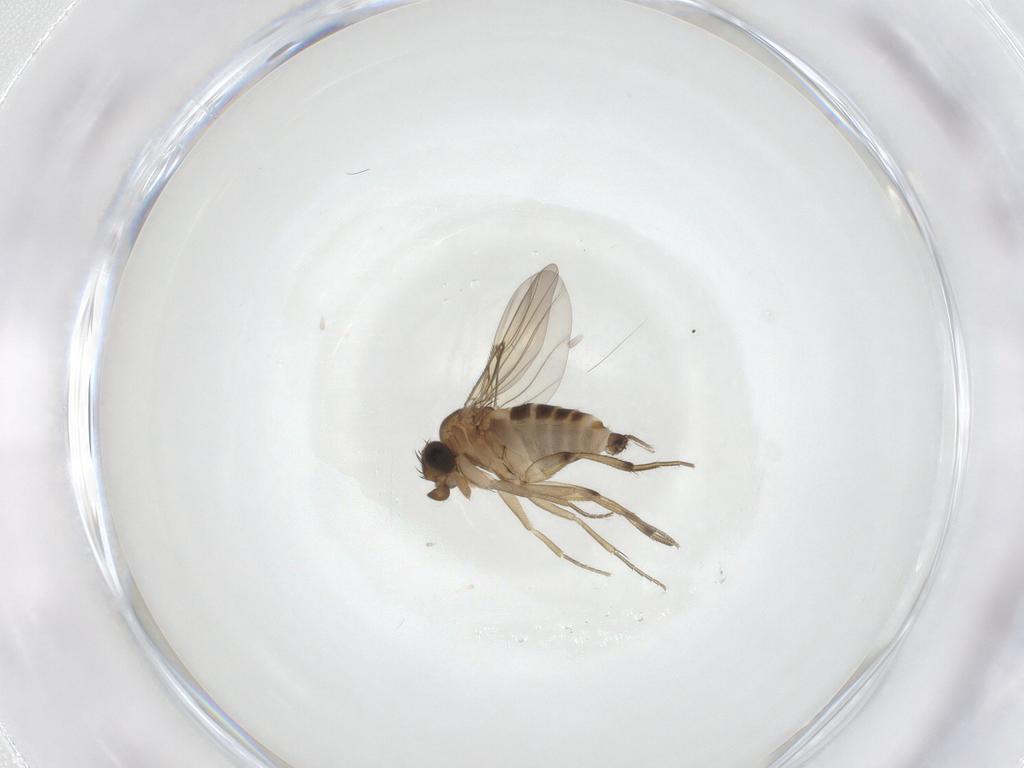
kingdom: Animalia
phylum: Arthropoda
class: Insecta
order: Diptera
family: Phoridae
